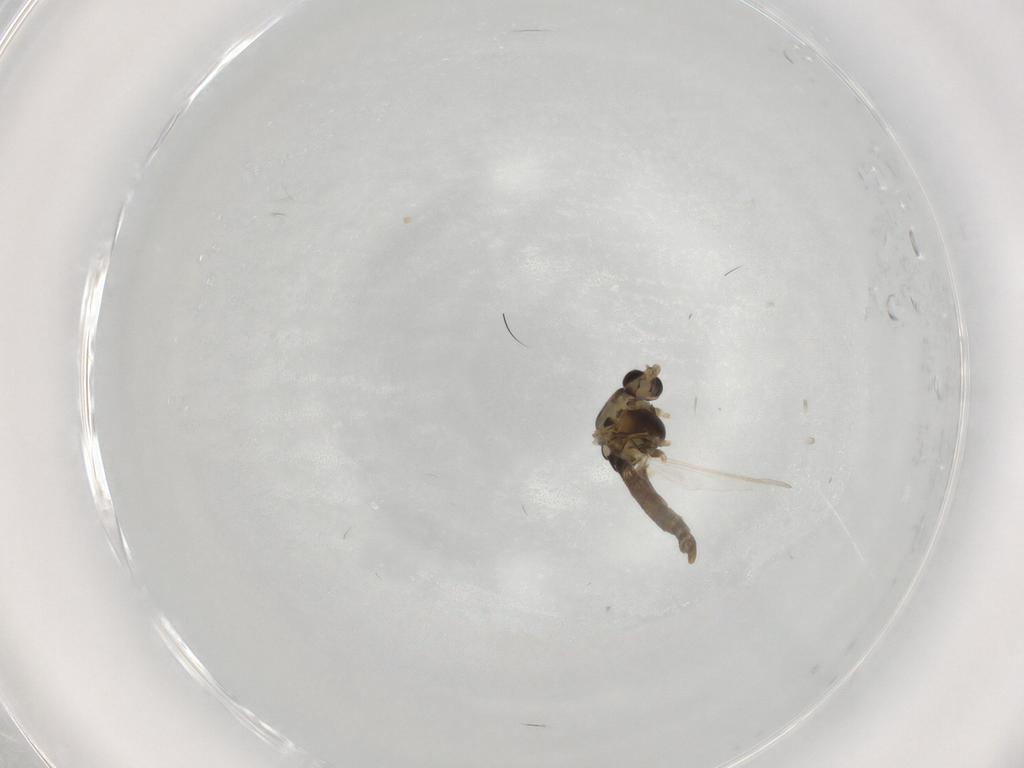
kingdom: Animalia
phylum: Arthropoda
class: Insecta
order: Diptera
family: Chironomidae
